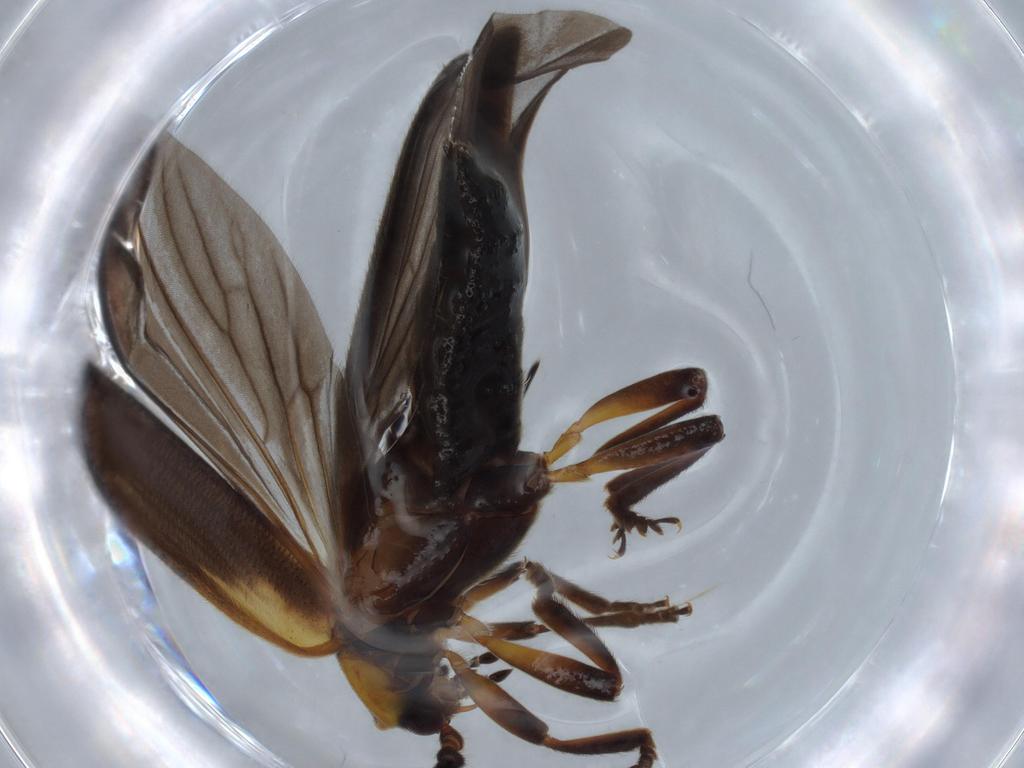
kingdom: Animalia
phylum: Arthropoda
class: Insecta
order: Coleoptera
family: Lycidae
